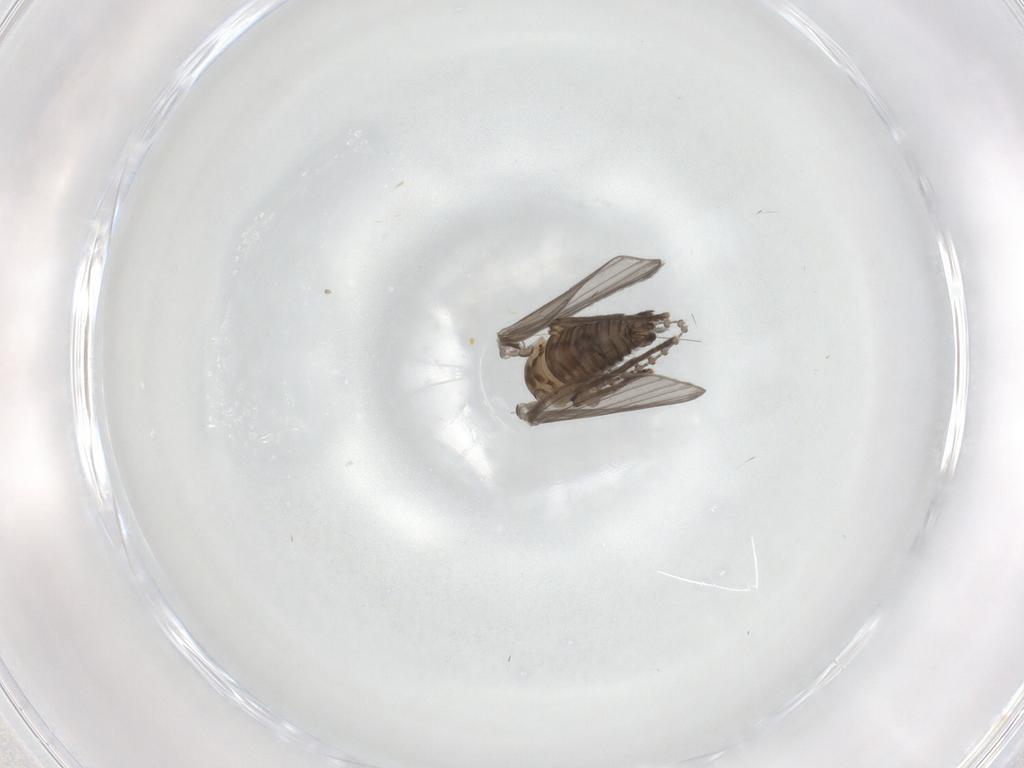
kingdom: Animalia
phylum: Arthropoda
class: Insecta
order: Diptera
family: Psychodidae
